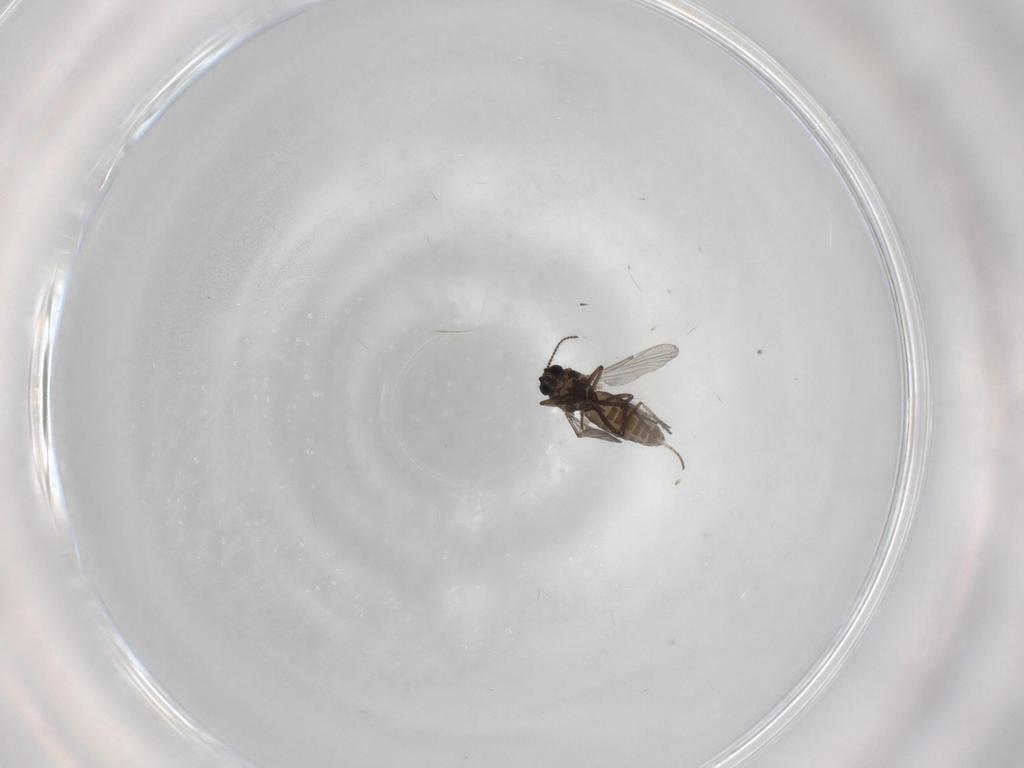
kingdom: Animalia
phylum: Arthropoda
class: Insecta
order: Diptera
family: Ceratopogonidae
